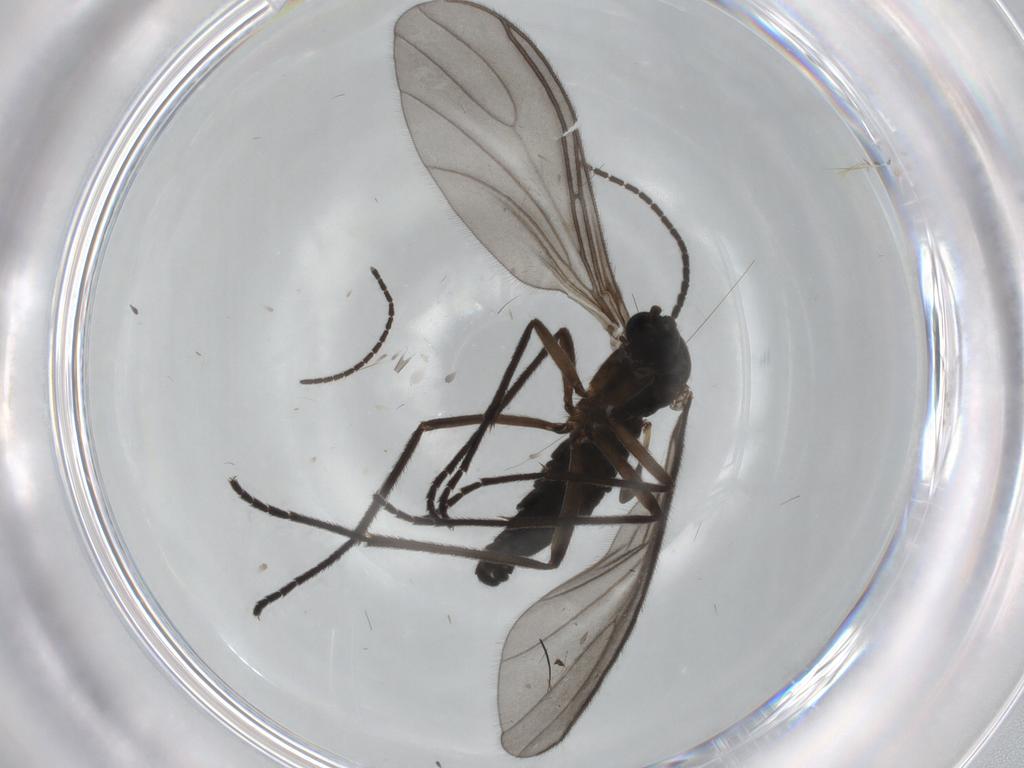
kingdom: Animalia
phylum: Arthropoda
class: Insecta
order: Diptera
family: Sciaridae
